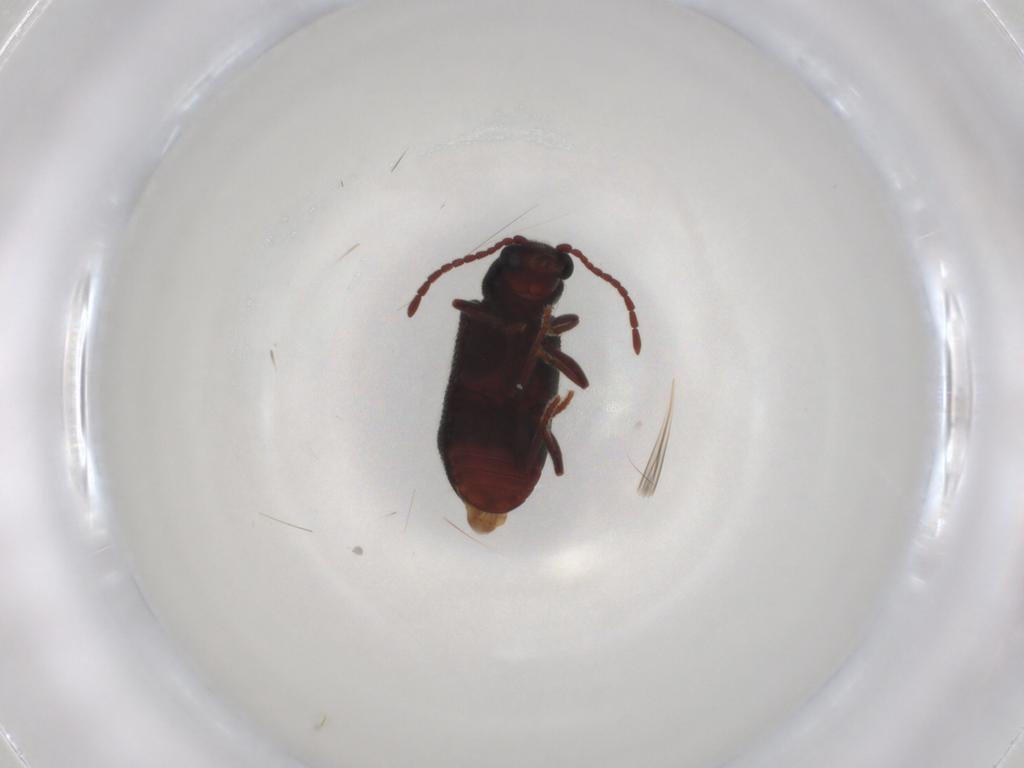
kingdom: Animalia
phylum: Arthropoda
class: Insecta
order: Coleoptera
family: Ptinidae
